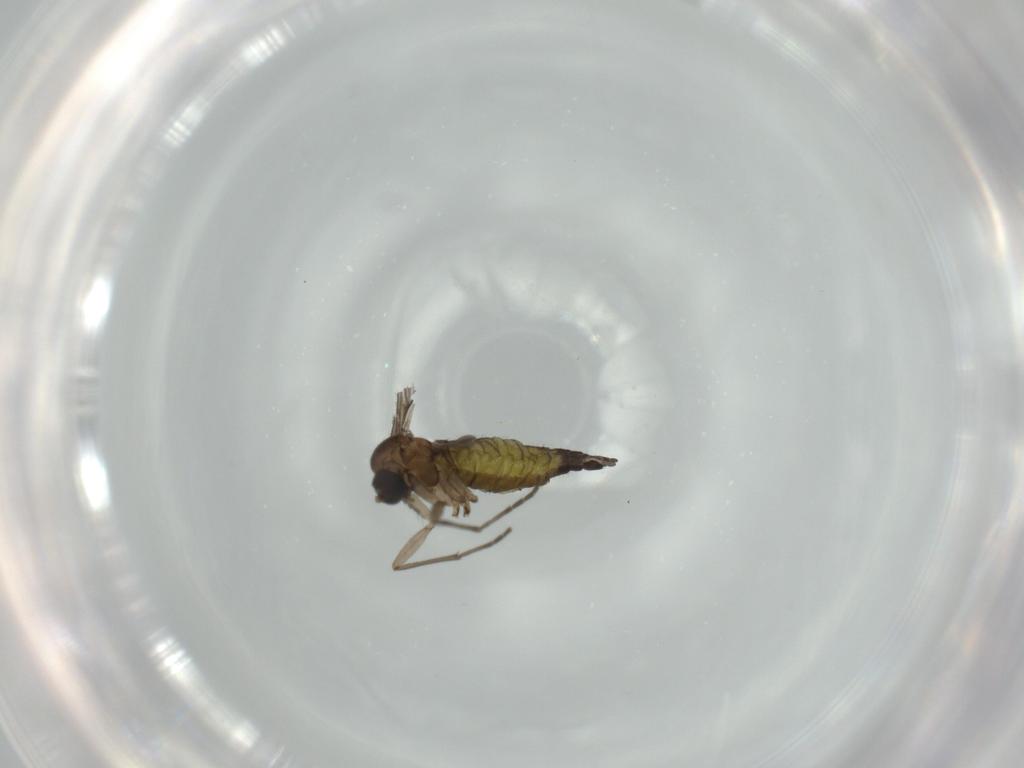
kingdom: Animalia
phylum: Arthropoda
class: Insecta
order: Diptera
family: Sciaridae
